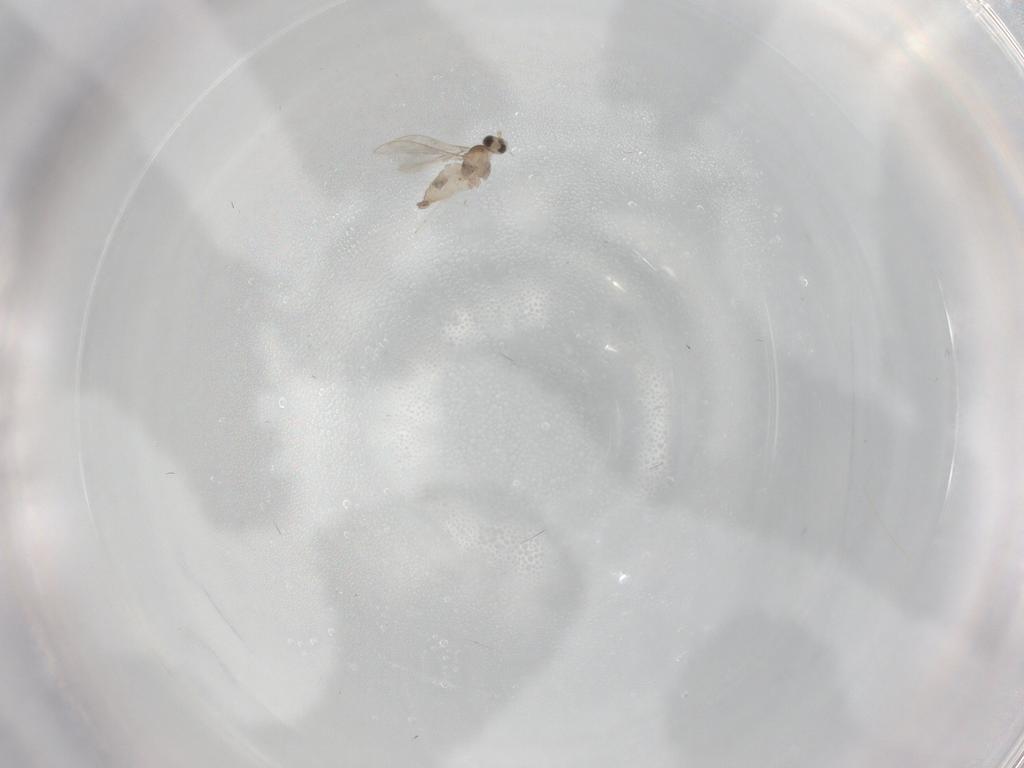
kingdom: Animalia
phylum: Arthropoda
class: Insecta
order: Diptera
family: Cecidomyiidae
